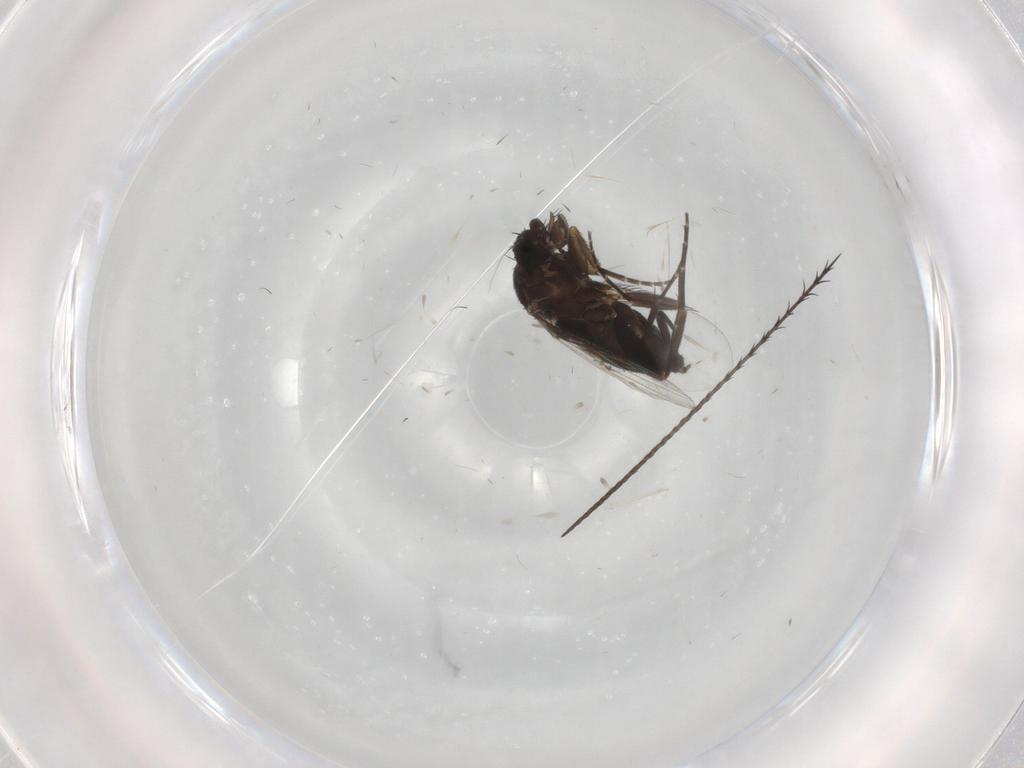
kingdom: Animalia
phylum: Arthropoda
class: Insecta
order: Diptera
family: Phoridae
